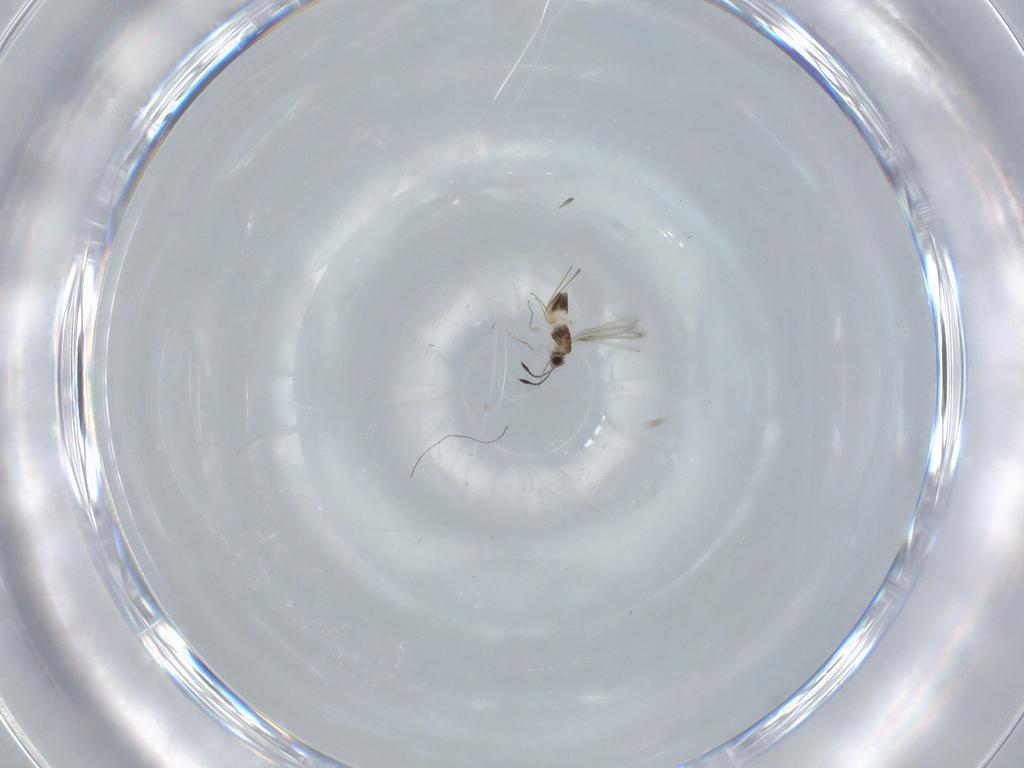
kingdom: Animalia
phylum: Arthropoda
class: Insecta
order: Hymenoptera
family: Mymaridae
